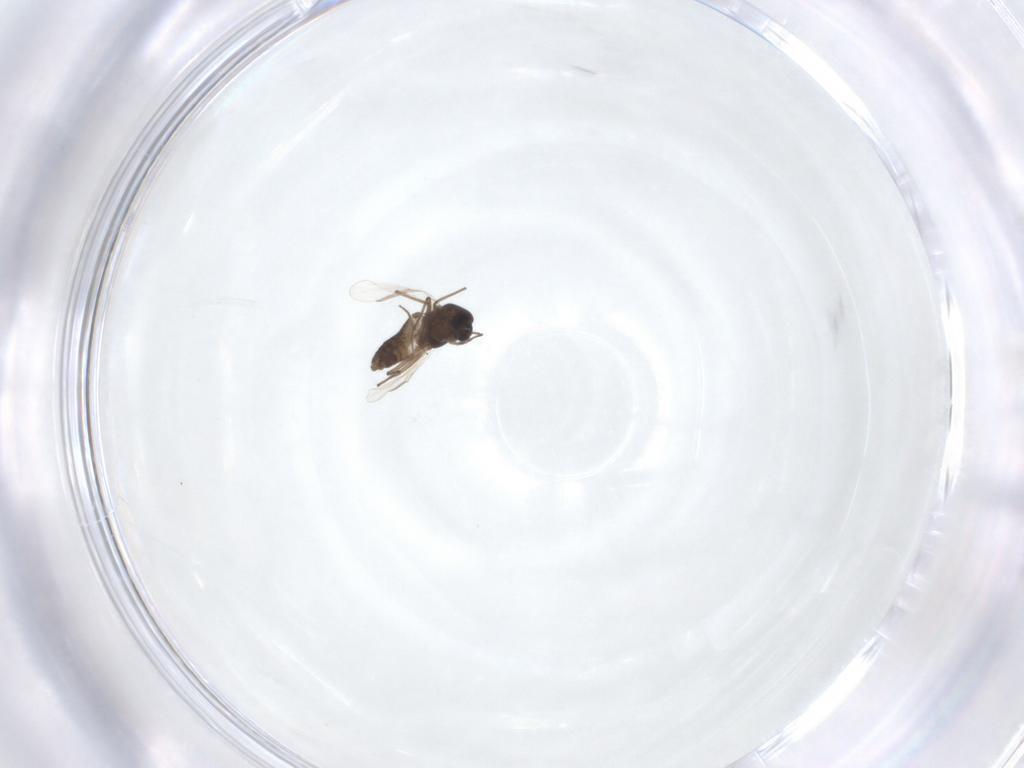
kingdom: Animalia
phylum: Arthropoda
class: Insecta
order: Diptera
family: Chironomidae
